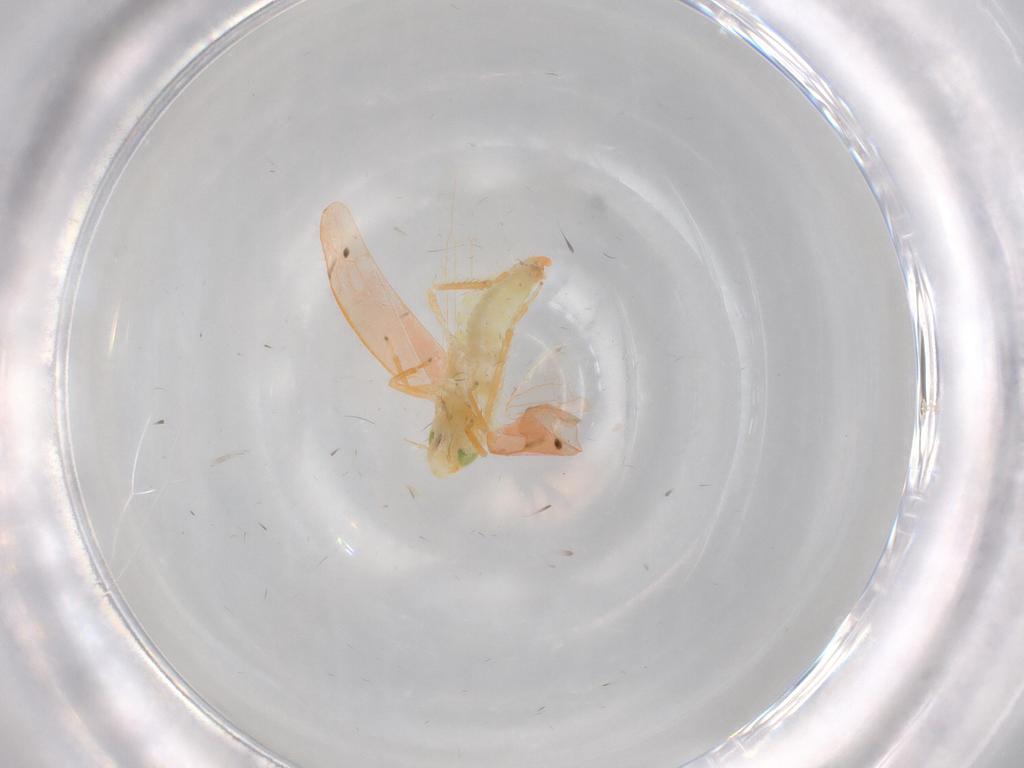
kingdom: Animalia
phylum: Arthropoda
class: Insecta
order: Hemiptera
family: Cicadellidae
